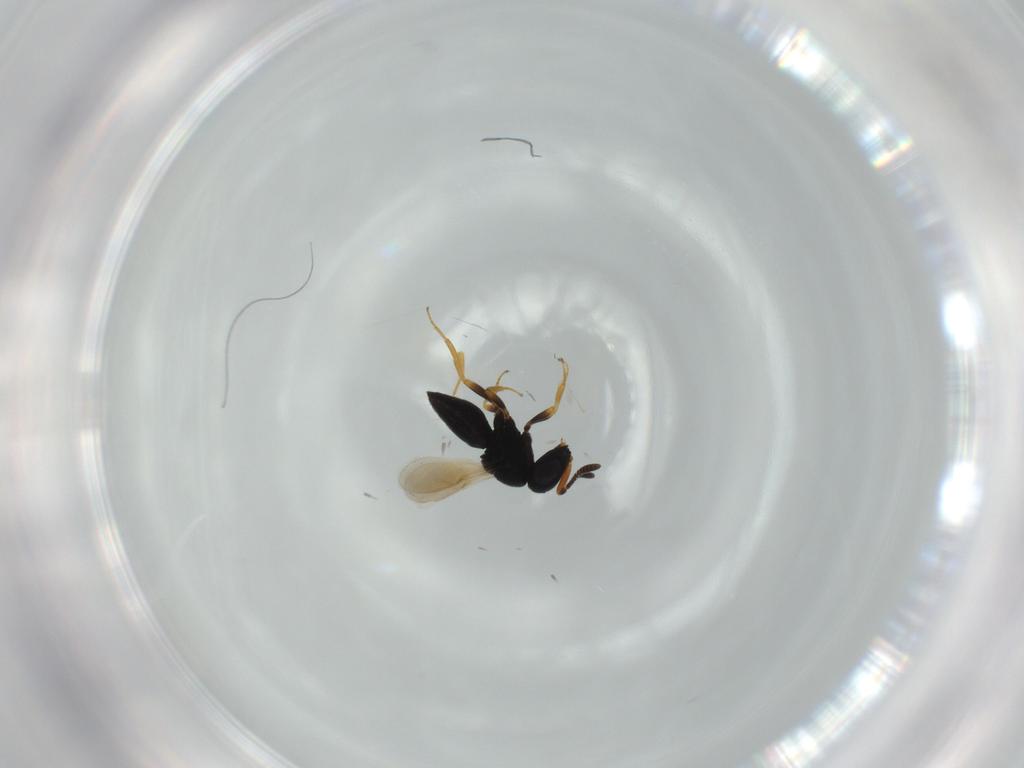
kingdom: Animalia
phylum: Arthropoda
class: Insecta
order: Hymenoptera
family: Scelionidae
